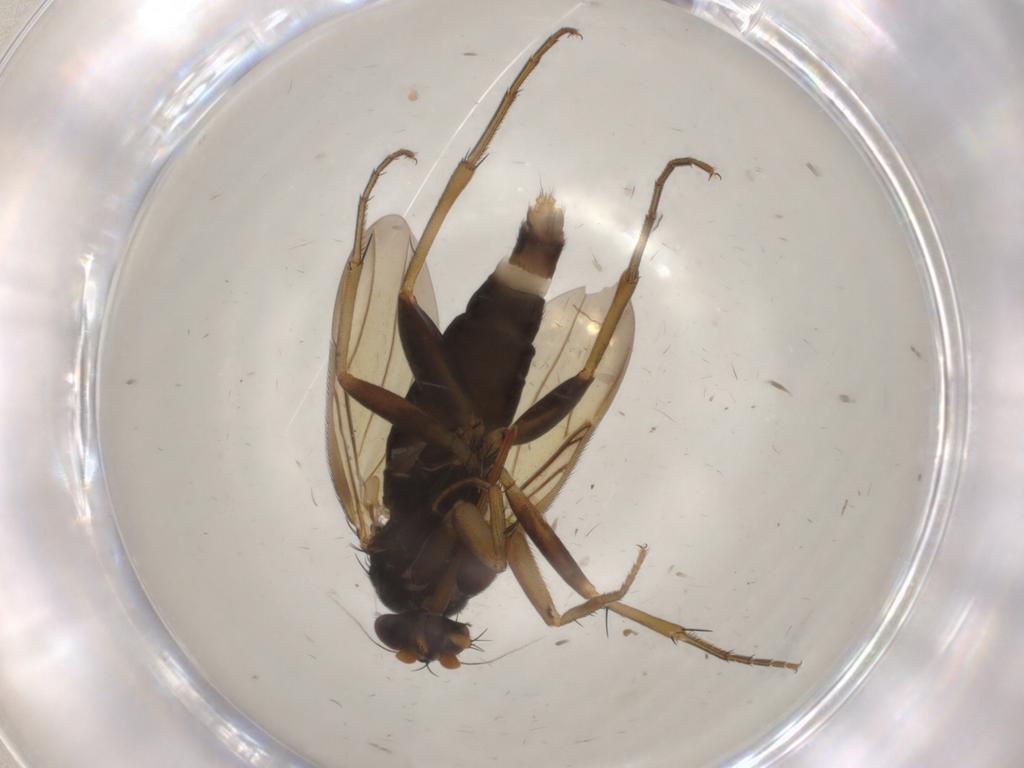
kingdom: Animalia
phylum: Arthropoda
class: Insecta
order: Diptera
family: Phoridae
